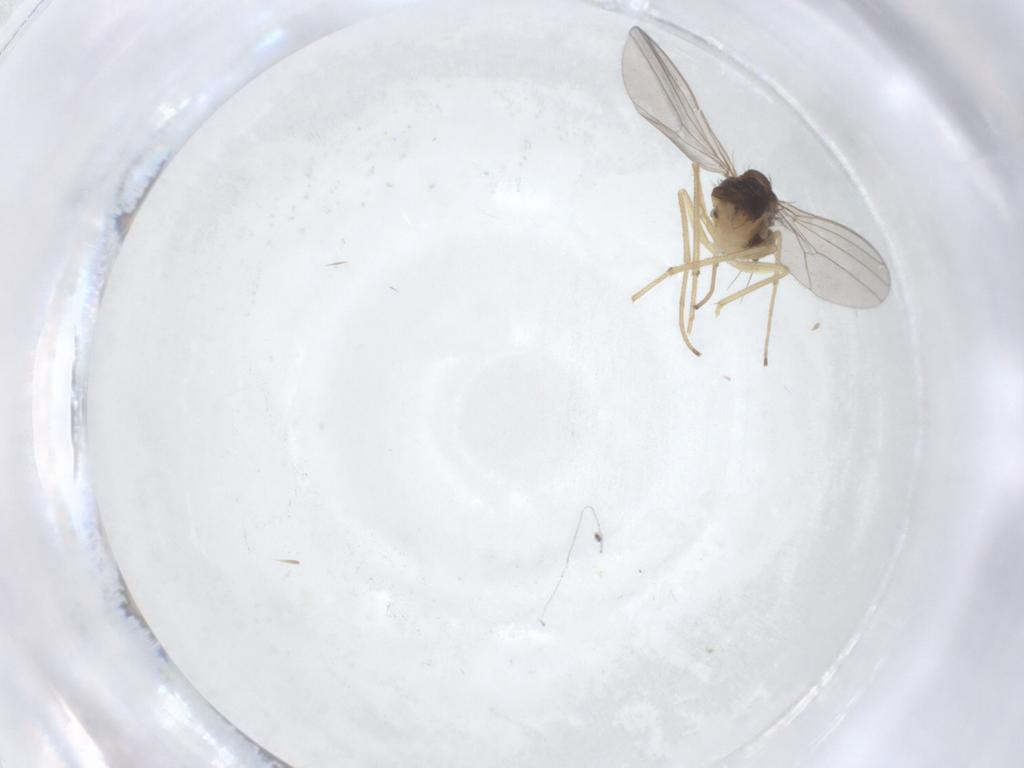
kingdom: Animalia
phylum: Arthropoda
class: Insecta
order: Diptera
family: Dolichopodidae
